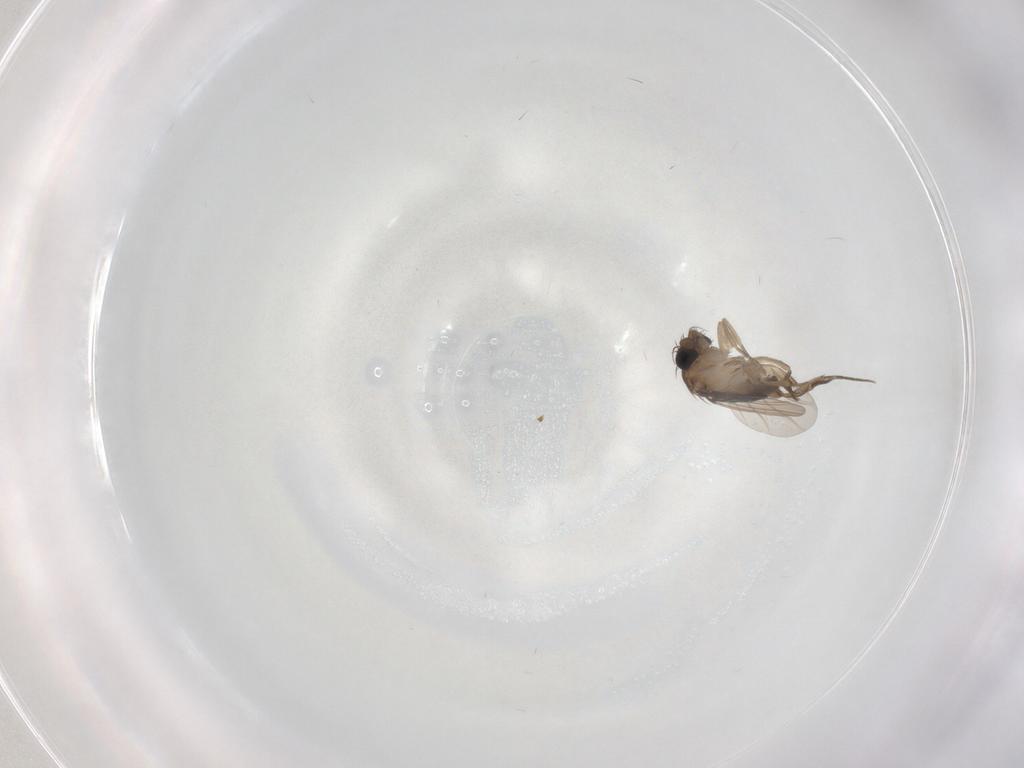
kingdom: Animalia
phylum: Arthropoda
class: Insecta
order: Diptera
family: Phoridae
